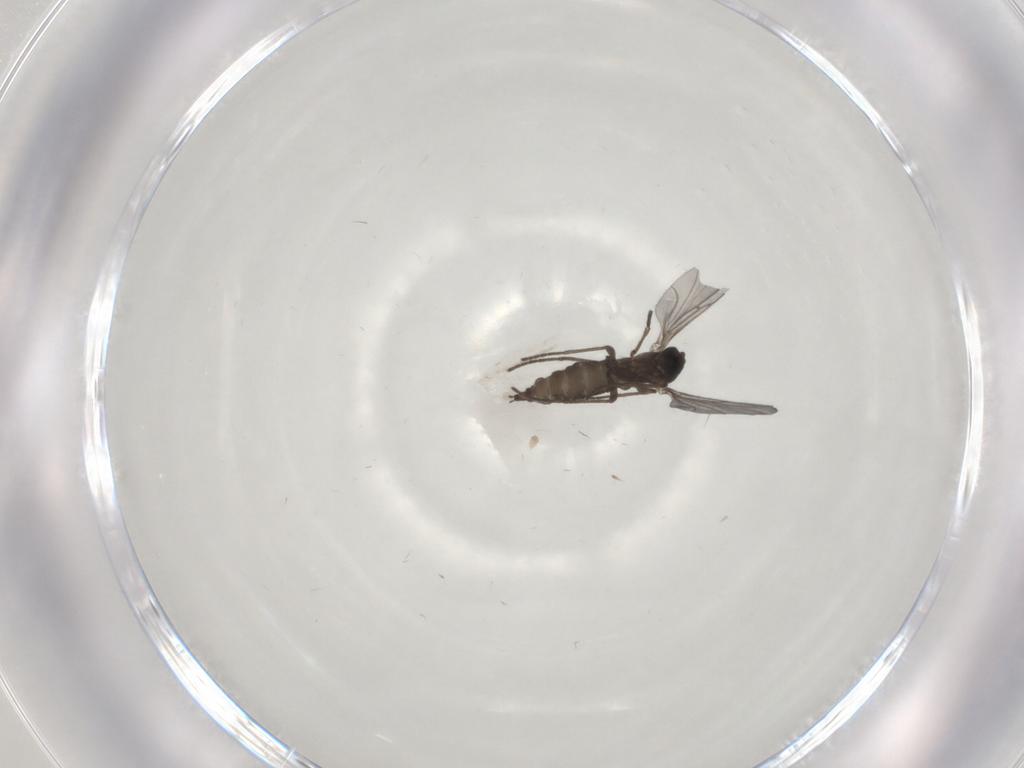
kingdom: Animalia
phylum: Arthropoda
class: Insecta
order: Diptera
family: Sciaridae
